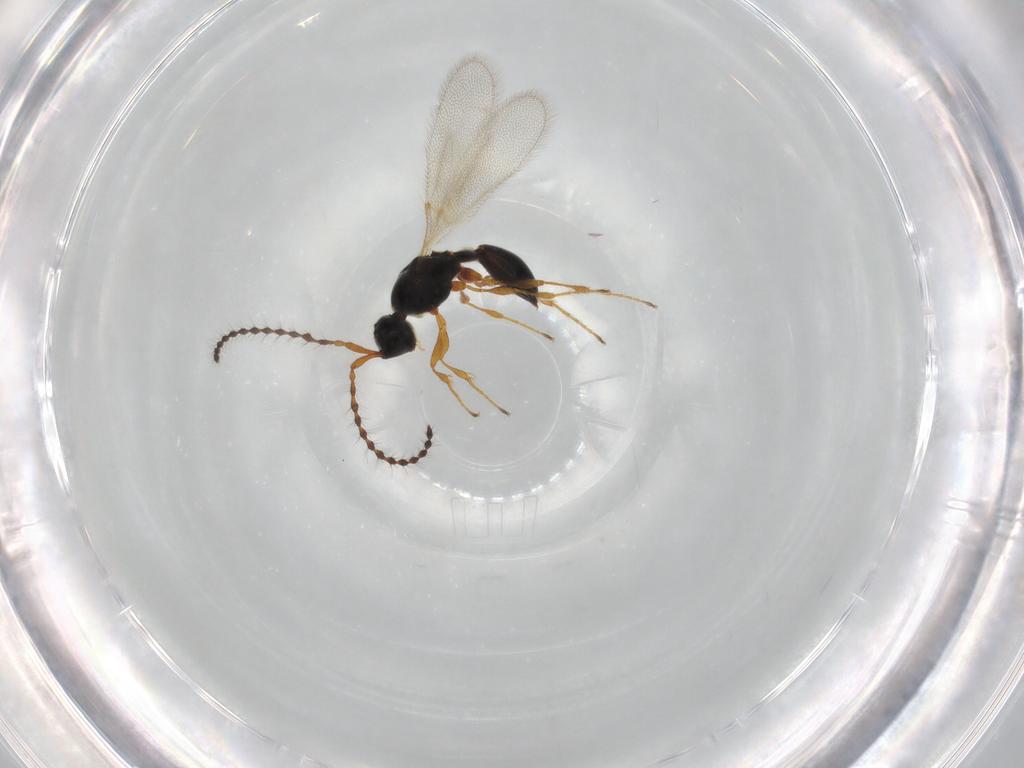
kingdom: Animalia
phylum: Arthropoda
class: Insecta
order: Hymenoptera
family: Diapriidae
